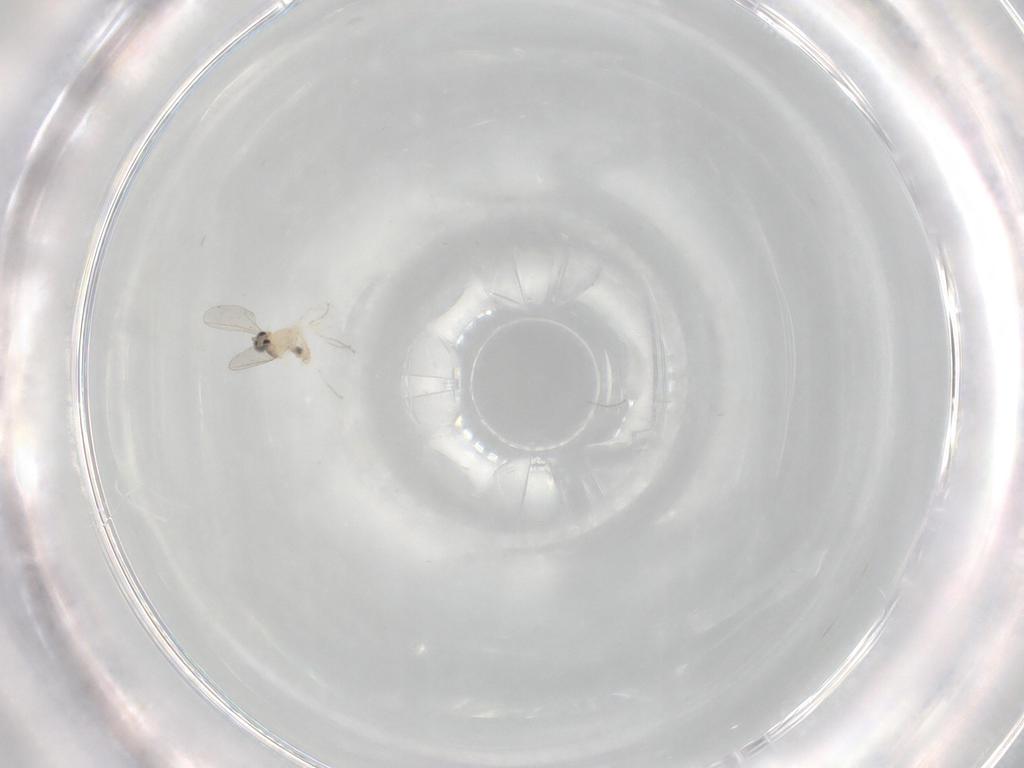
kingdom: Animalia
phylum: Arthropoda
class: Insecta
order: Diptera
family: Cecidomyiidae
